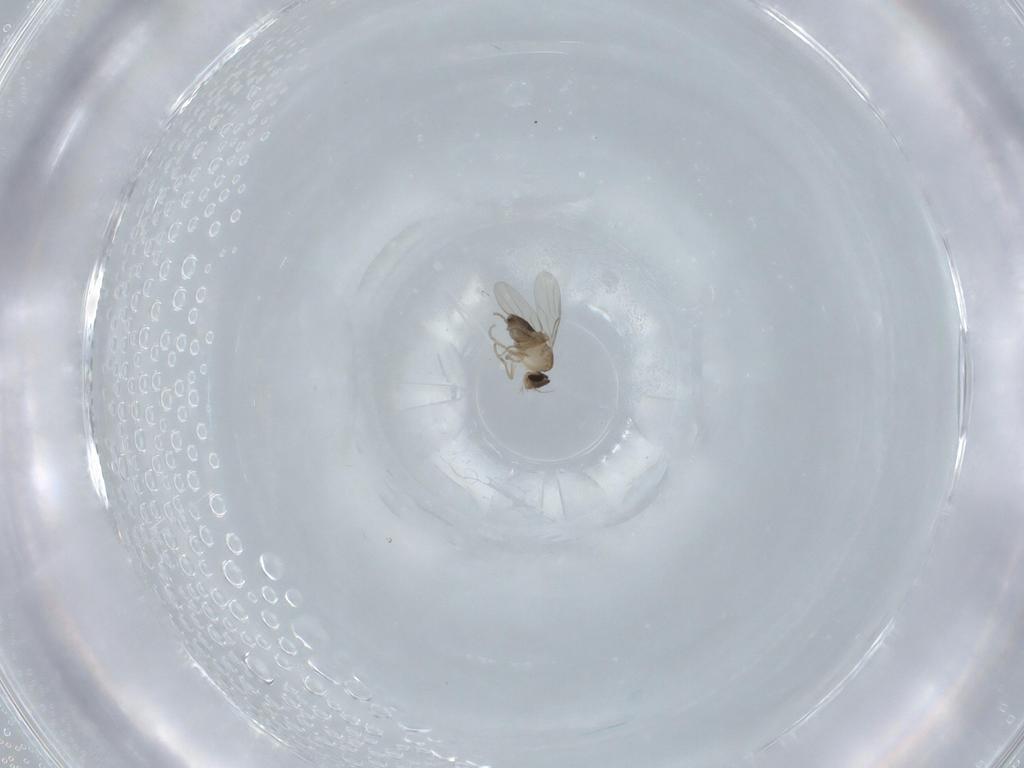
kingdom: Animalia
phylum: Arthropoda
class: Insecta
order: Diptera
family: Phoridae
